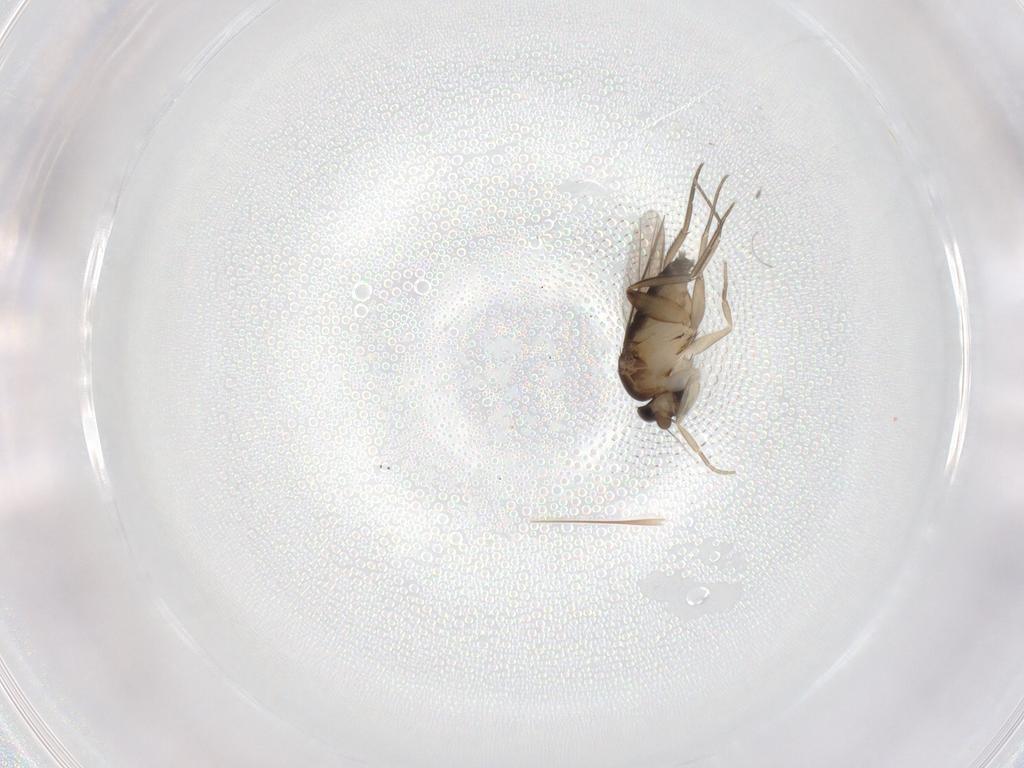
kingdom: Animalia
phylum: Arthropoda
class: Insecta
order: Diptera
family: Phoridae
